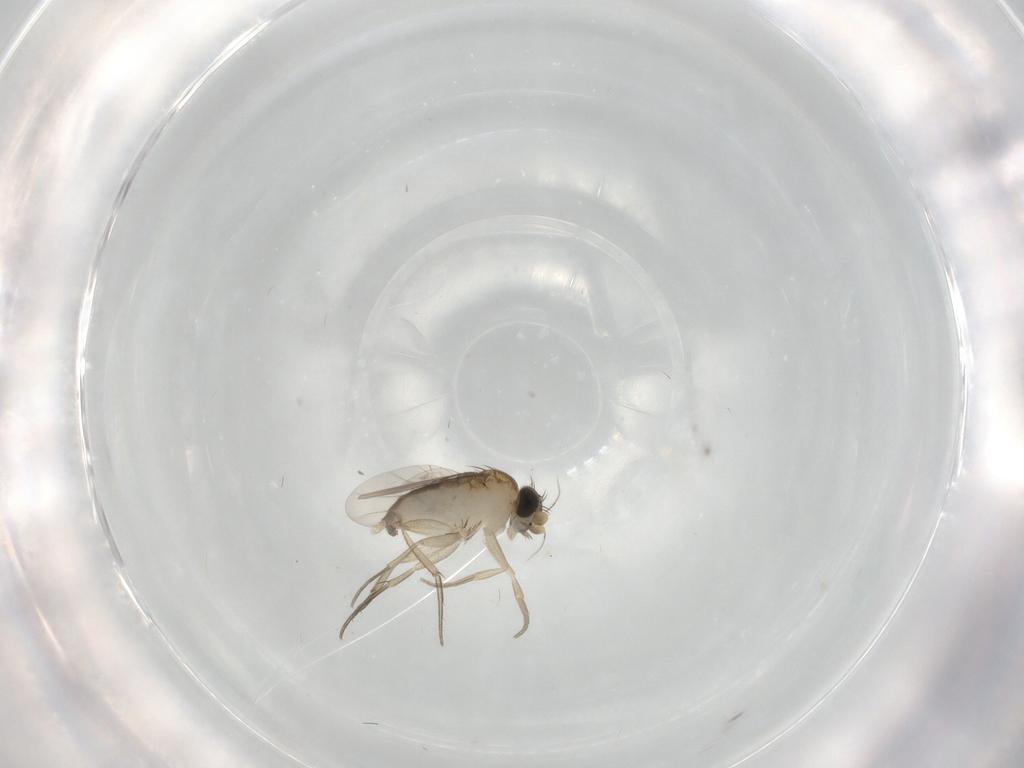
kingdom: Animalia
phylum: Arthropoda
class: Insecta
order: Diptera
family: Phoridae
